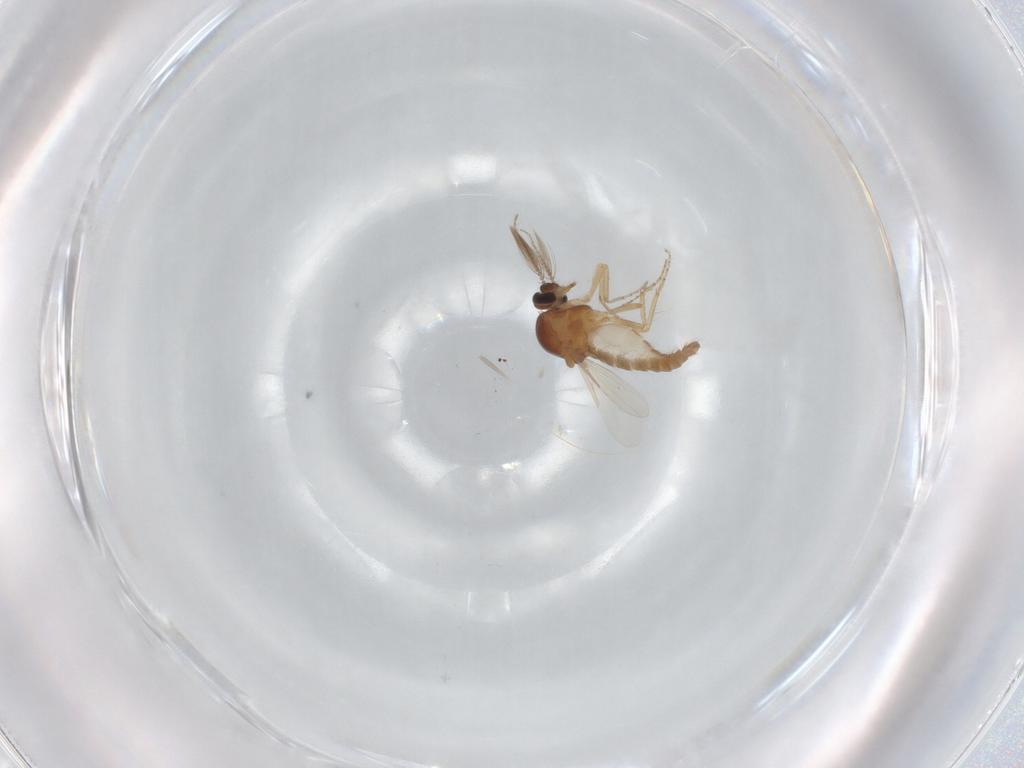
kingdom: Animalia
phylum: Arthropoda
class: Insecta
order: Diptera
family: Ceratopogonidae
